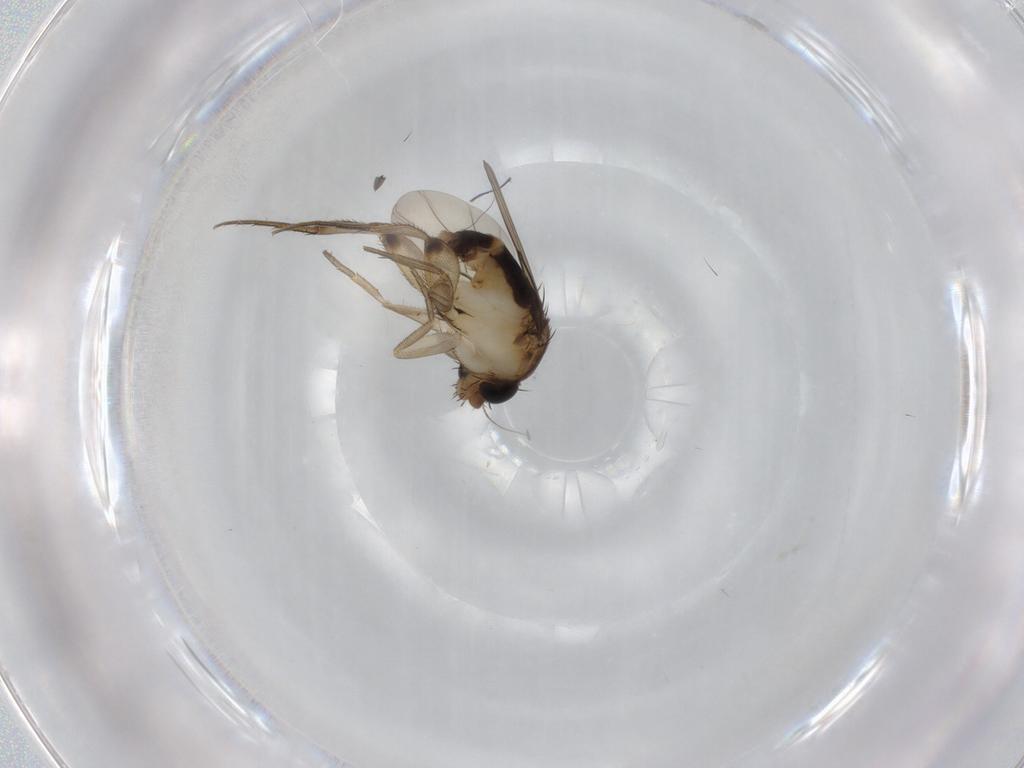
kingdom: Animalia
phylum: Arthropoda
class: Insecta
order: Diptera
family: Phoridae
